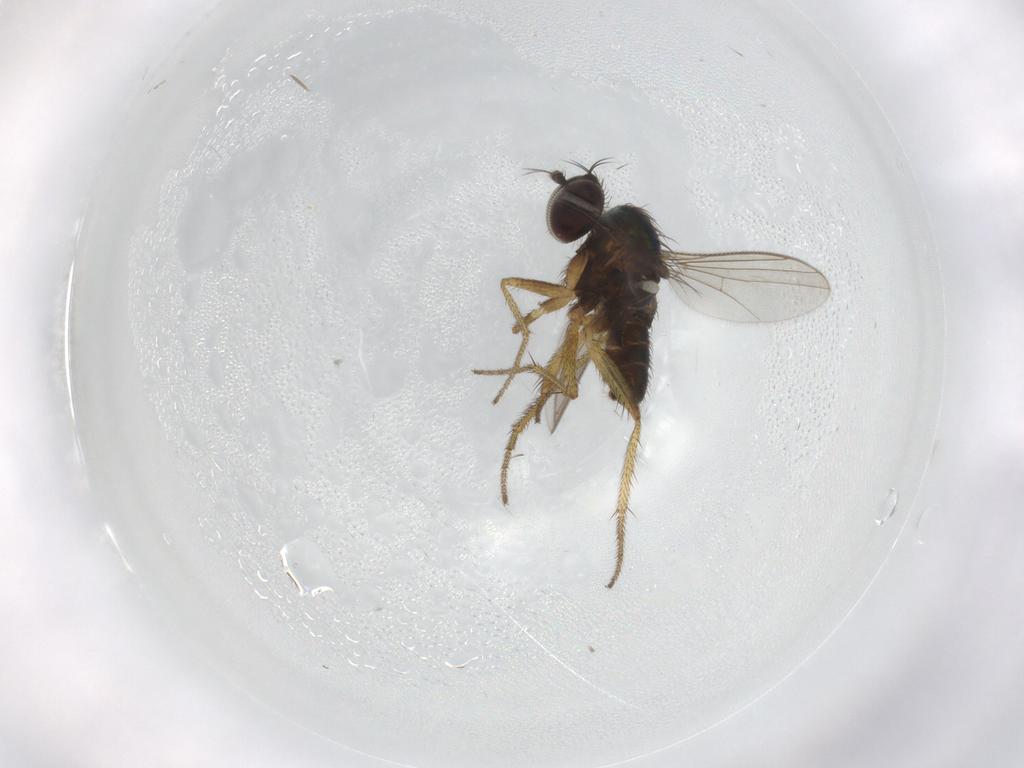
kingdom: Animalia
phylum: Arthropoda
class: Insecta
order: Diptera
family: Chironomidae
